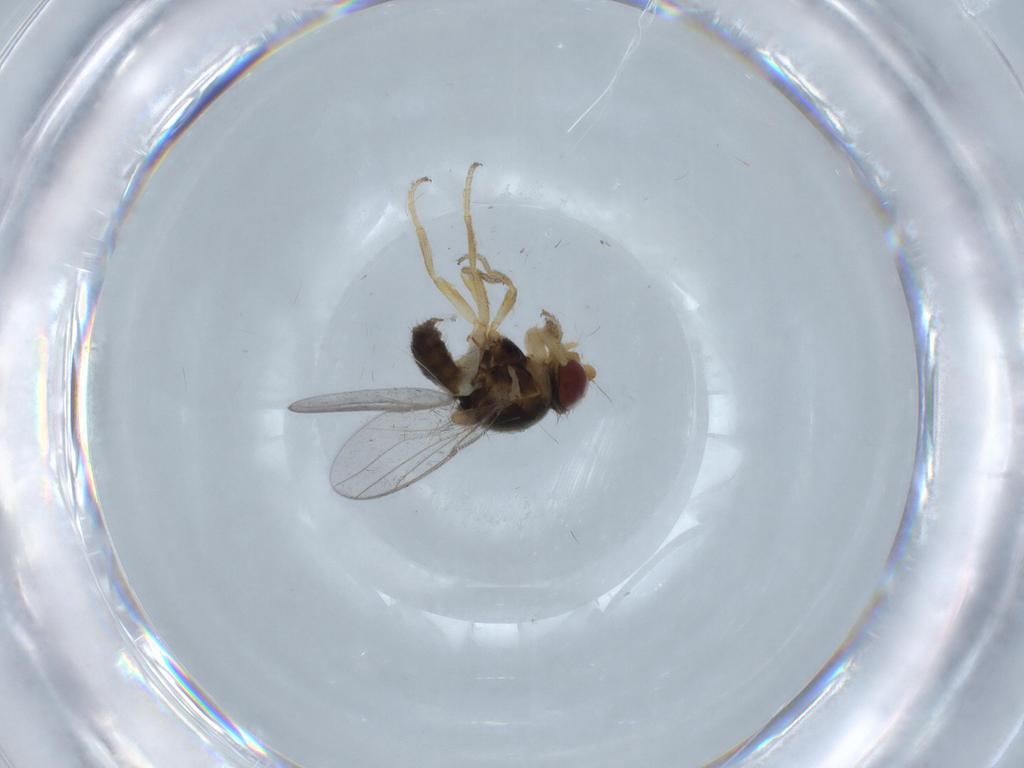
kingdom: Animalia
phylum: Arthropoda
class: Insecta
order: Diptera
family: Chloropidae
